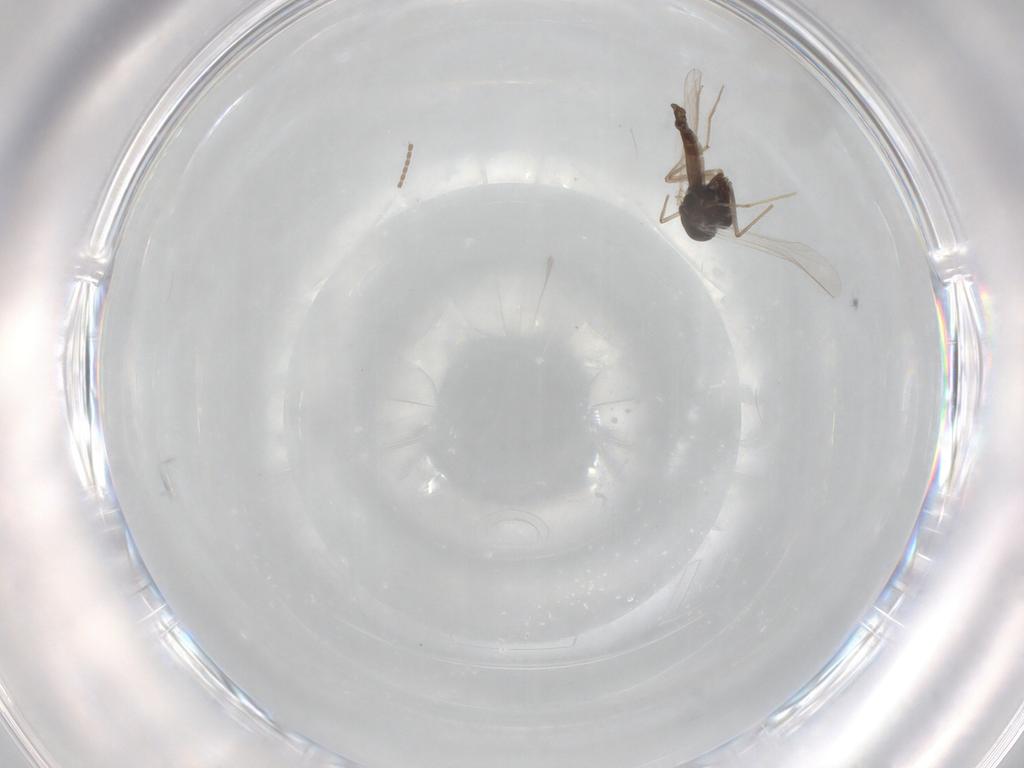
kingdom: Animalia
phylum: Arthropoda
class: Insecta
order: Diptera
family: Chironomidae
